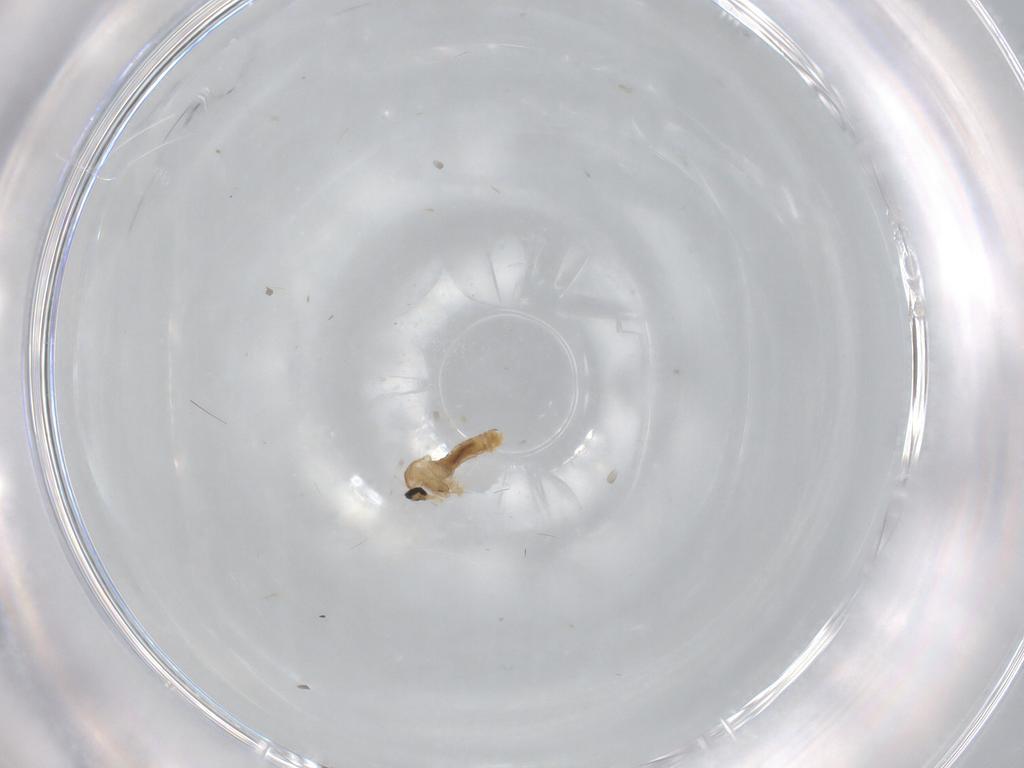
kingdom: Animalia
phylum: Arthropoda
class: Insecta
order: Diptera
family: Cecidomyiidae
